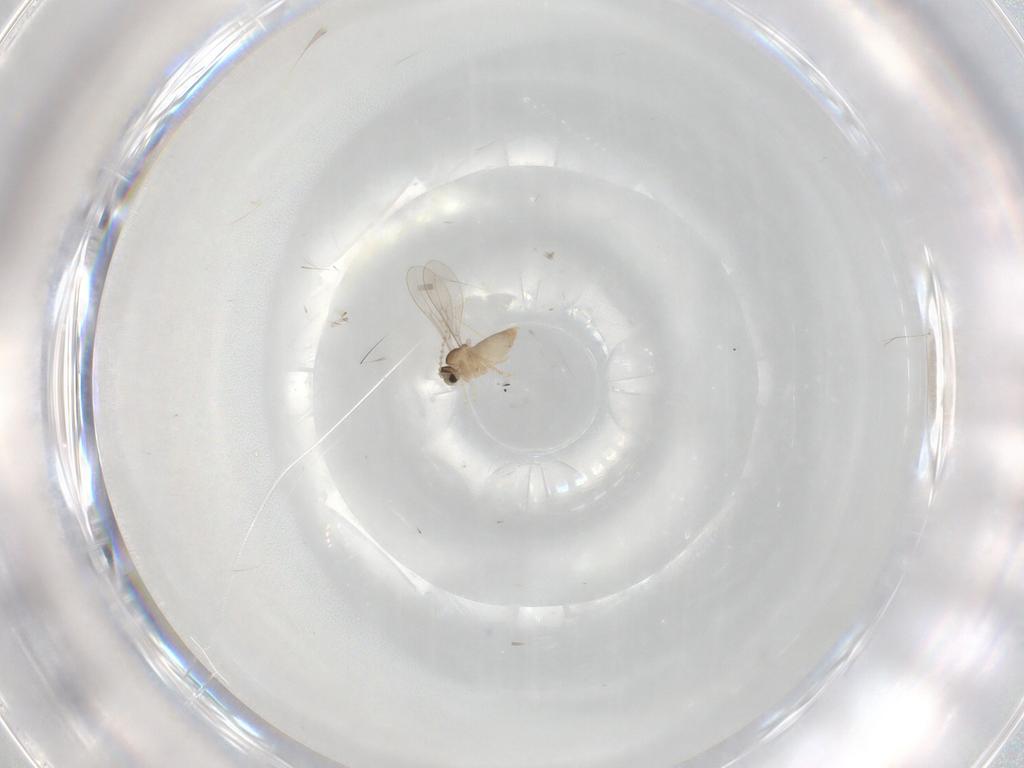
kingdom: Animalia
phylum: Arthropoda
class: Insecta
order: Diptera
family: Cecidomyiidae
